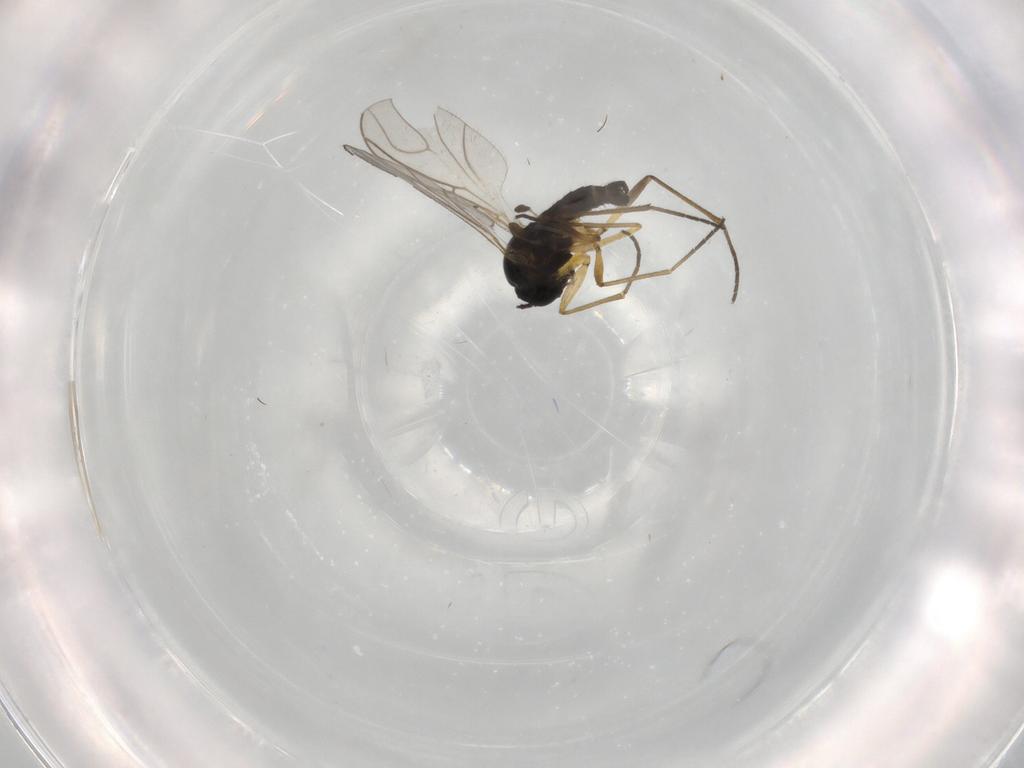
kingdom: Animalia
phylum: Arthropoda
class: Insecta
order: Diptera
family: Sciaridae
